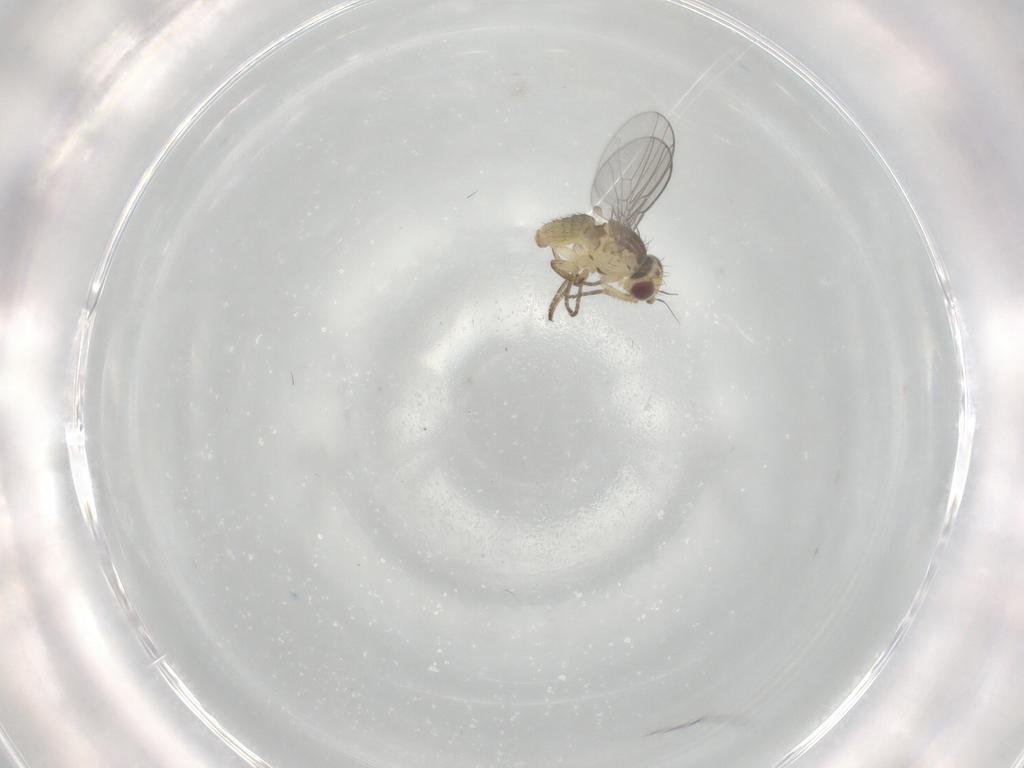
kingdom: Animalia
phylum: Arthropoda
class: Insecta
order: Diptera
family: Agromyzidae
